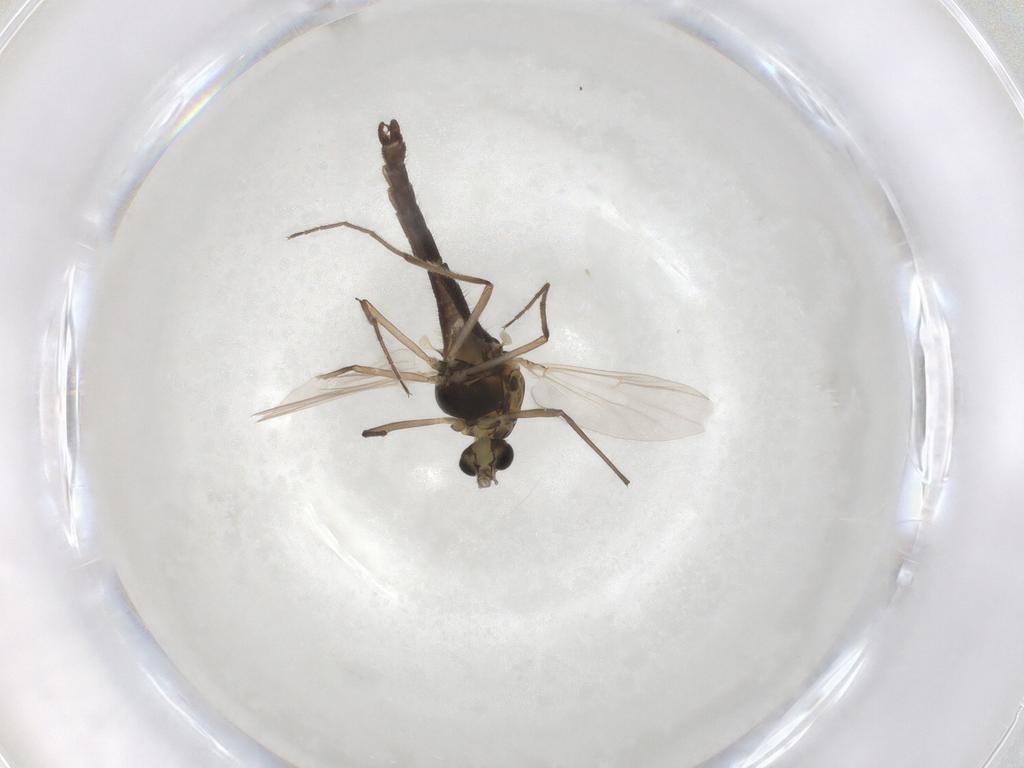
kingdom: Animalia
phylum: Arthropoda
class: Insecta
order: Diptera
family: Chironomidae
